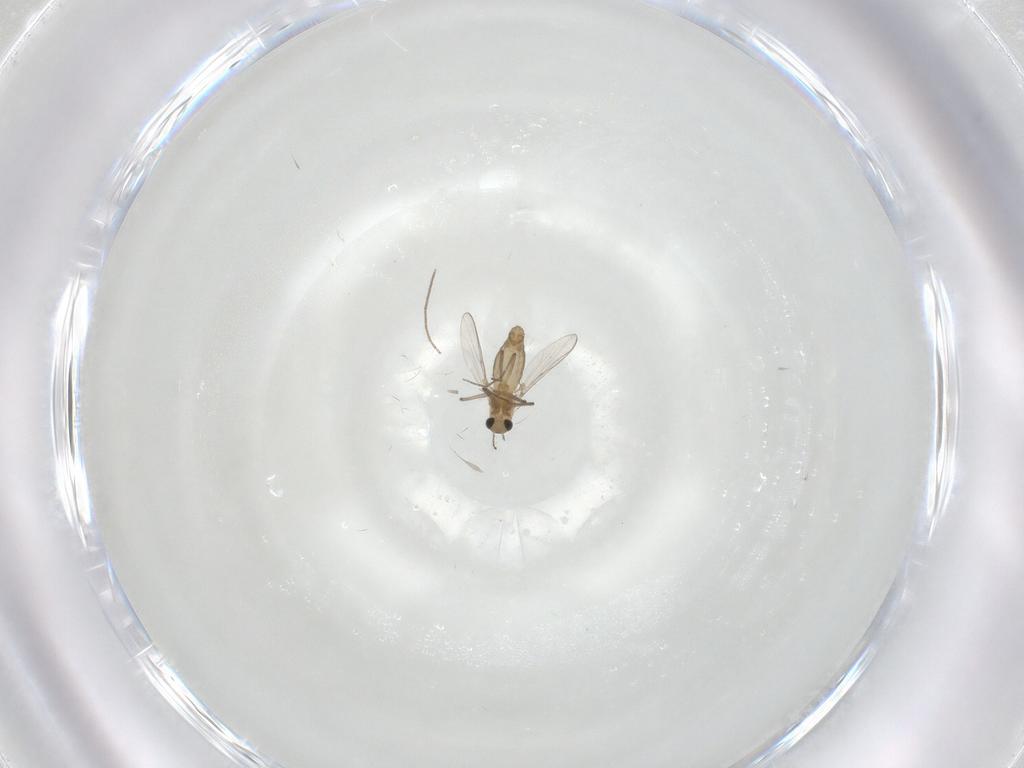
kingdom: Animalia
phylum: Arthropoda
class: Insecta
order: Diptera
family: Chironomidae
